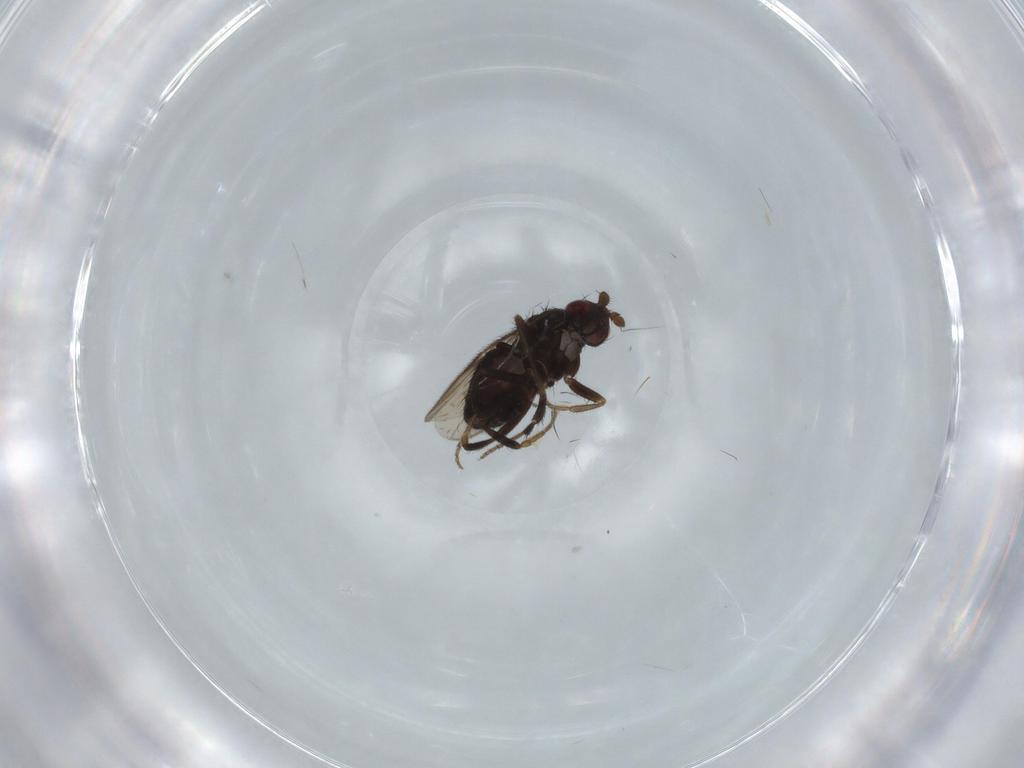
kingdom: Animalia
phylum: Arthropoda
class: Insecta
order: Diptera
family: Sphaeroceridae
